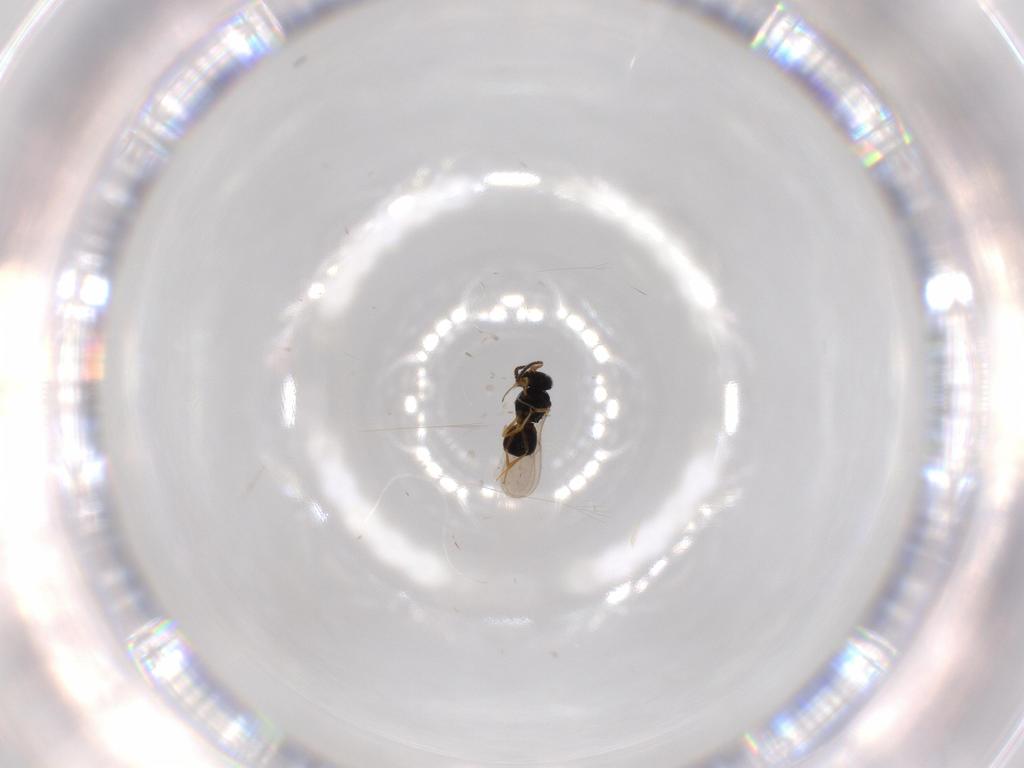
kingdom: Animalia
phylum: Arthropoda
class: Insecta
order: Hymenoptera
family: Scelionidae
